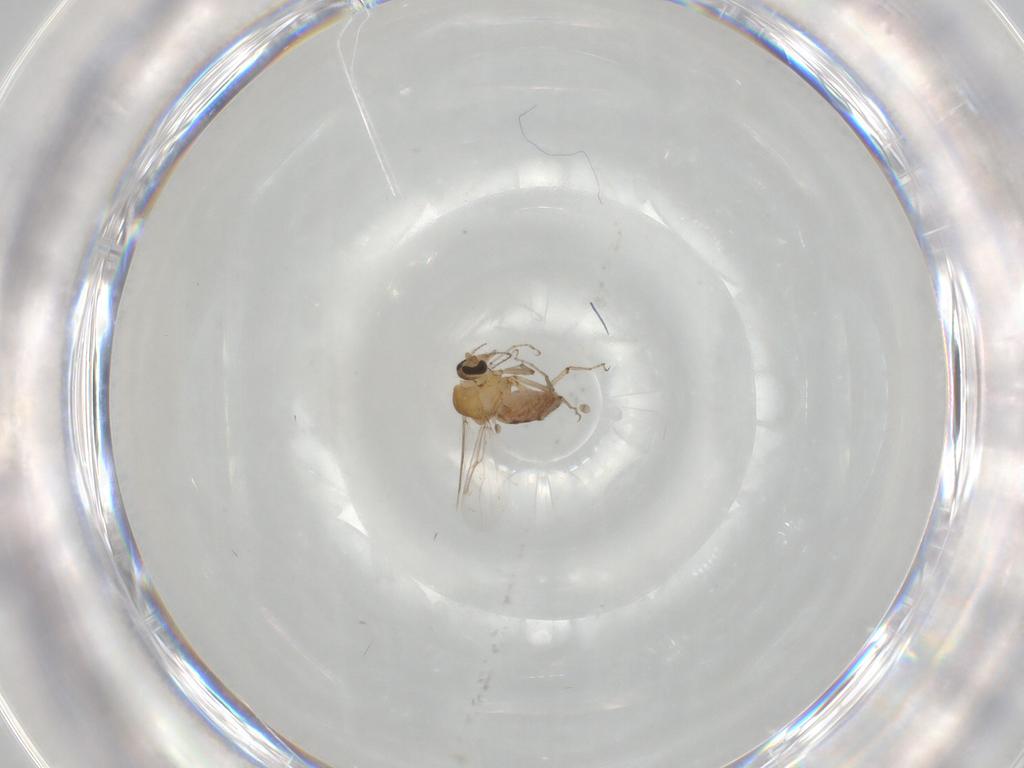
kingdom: Animalia
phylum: Arthropoda
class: Insecta
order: Diptera
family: Ceratopogonidae
